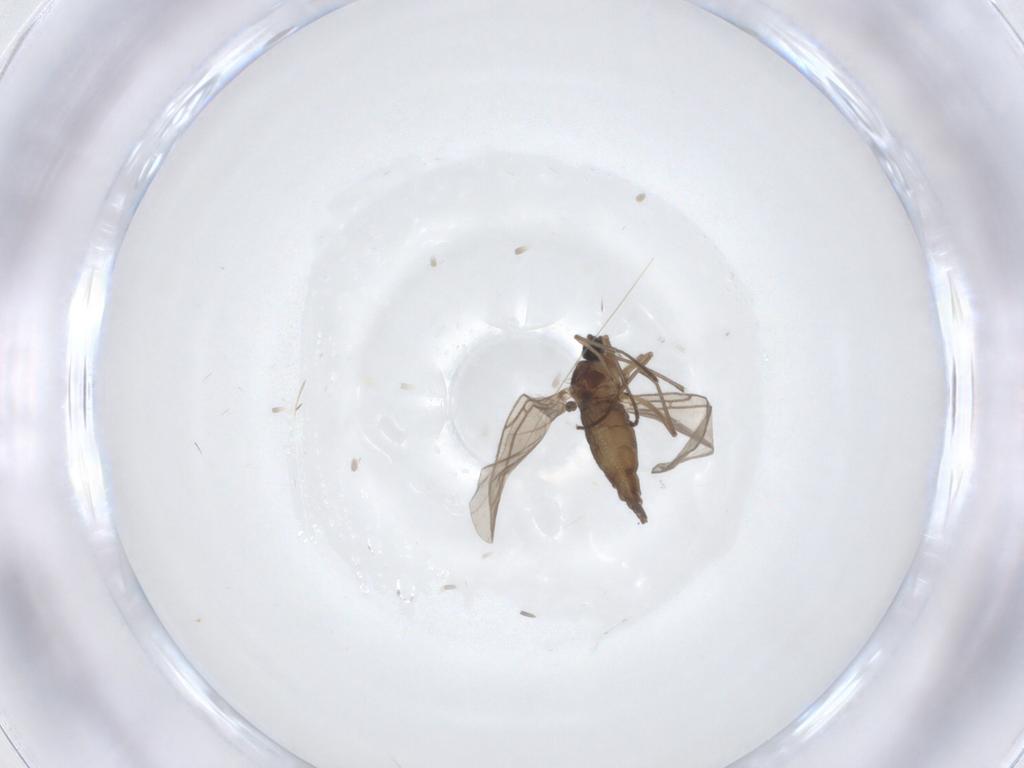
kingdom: Animalia
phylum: Arthropoda
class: Insecta
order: Diptera
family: Sciaridae
